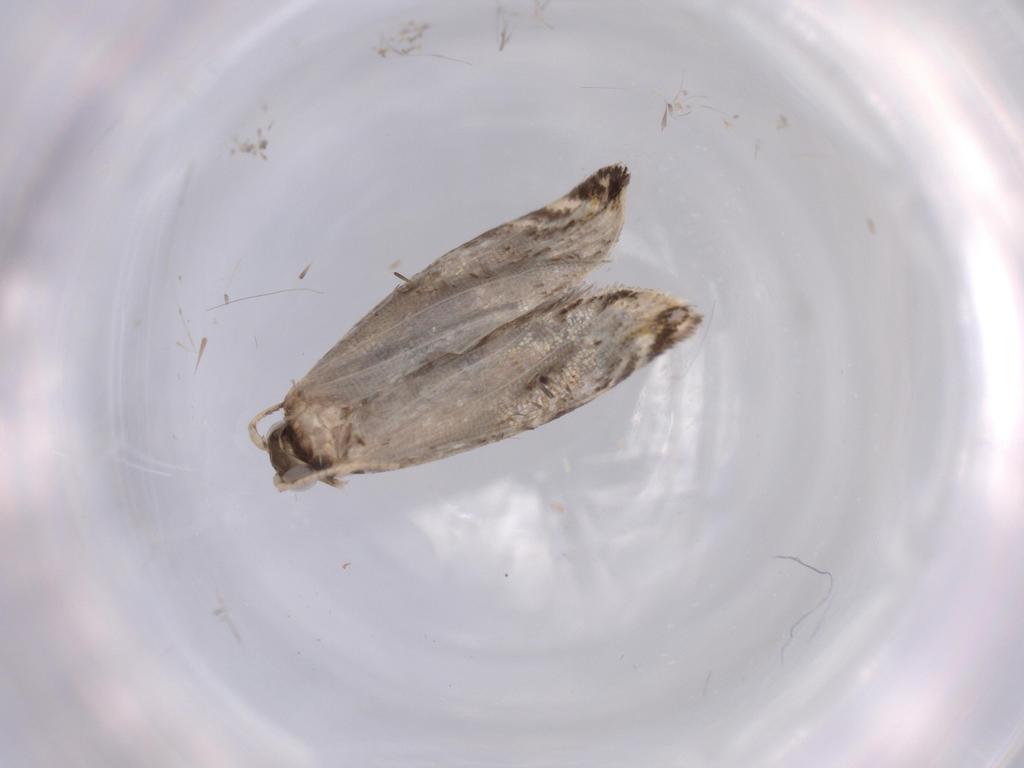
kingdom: Animalia
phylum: Arthropoda
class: Insecta
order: Lepidoptera
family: Tineidae
